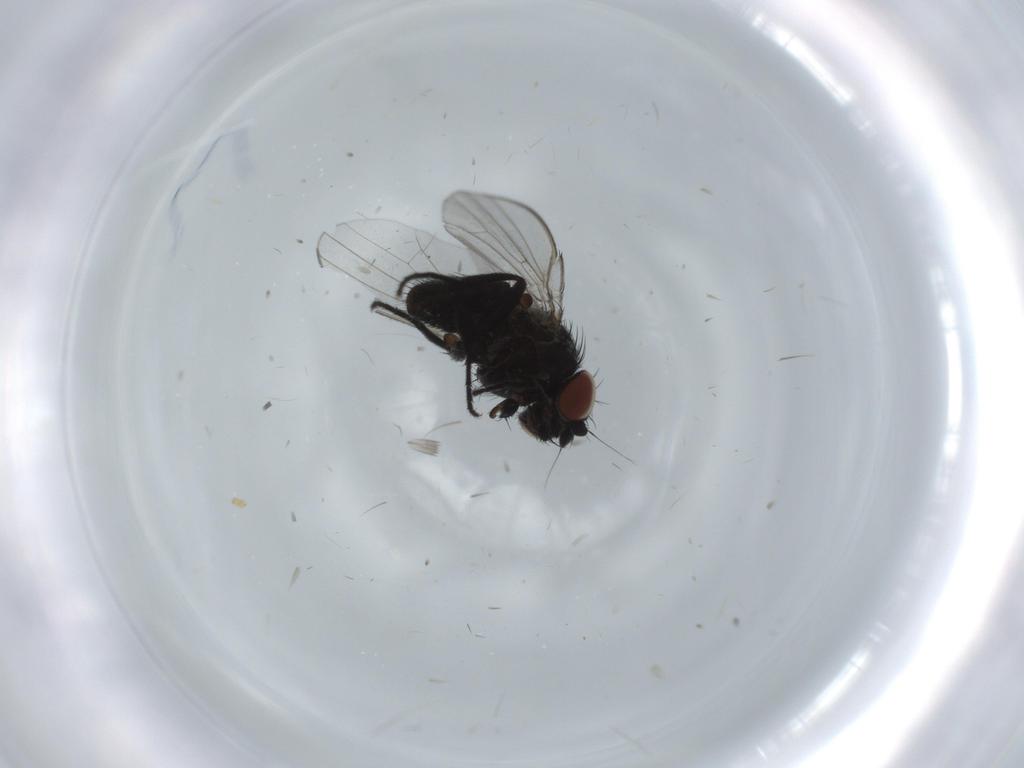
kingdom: Animalia
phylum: Arthropoda
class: Insecta
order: Diptera
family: Milichiidae
